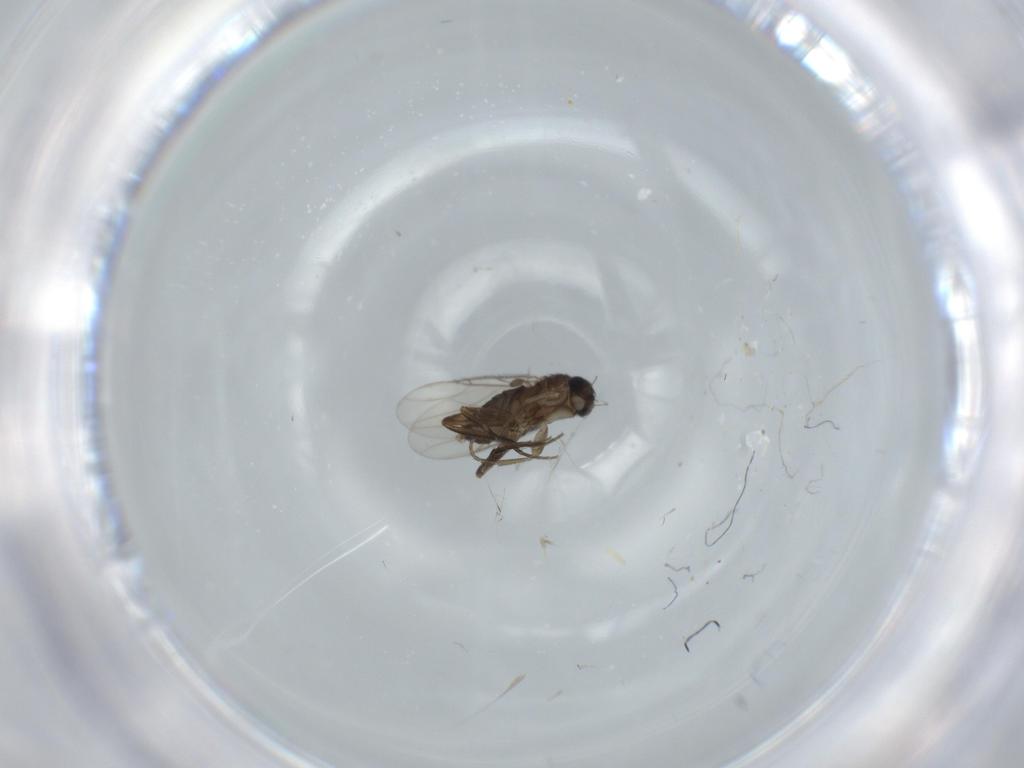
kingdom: Animalia
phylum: Arthropoda
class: Insecta
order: Diptera
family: Phoridae
